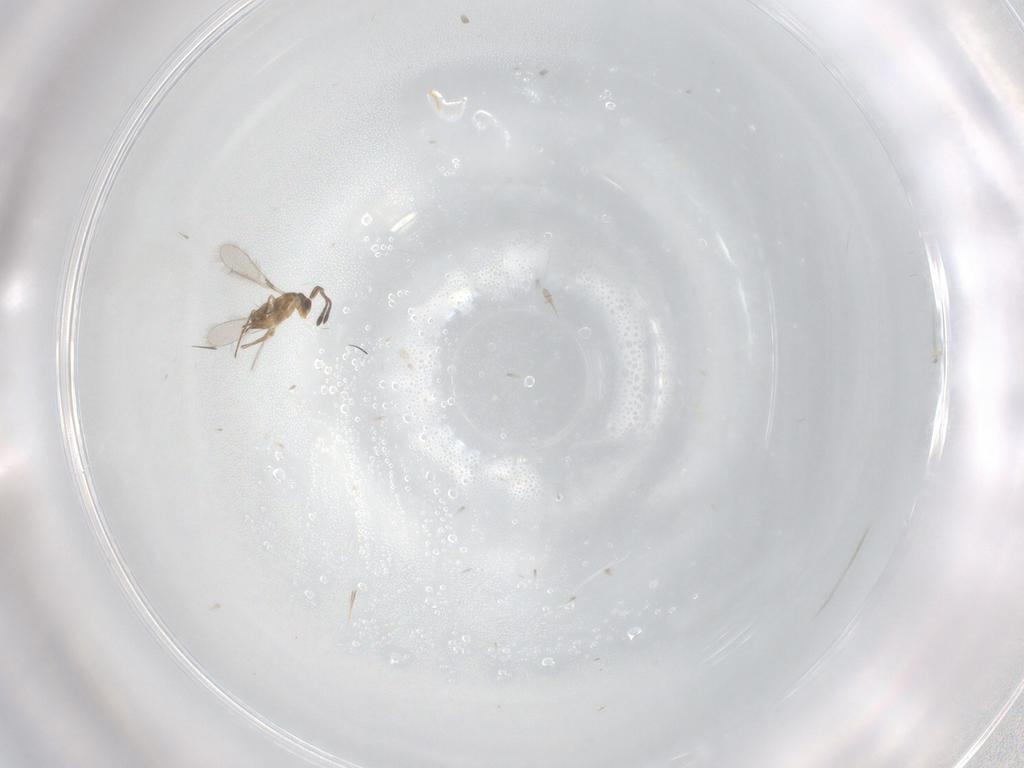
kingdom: Animalia
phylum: Arthropoda
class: Insecta
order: Hymenoptera
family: Mymaridae
